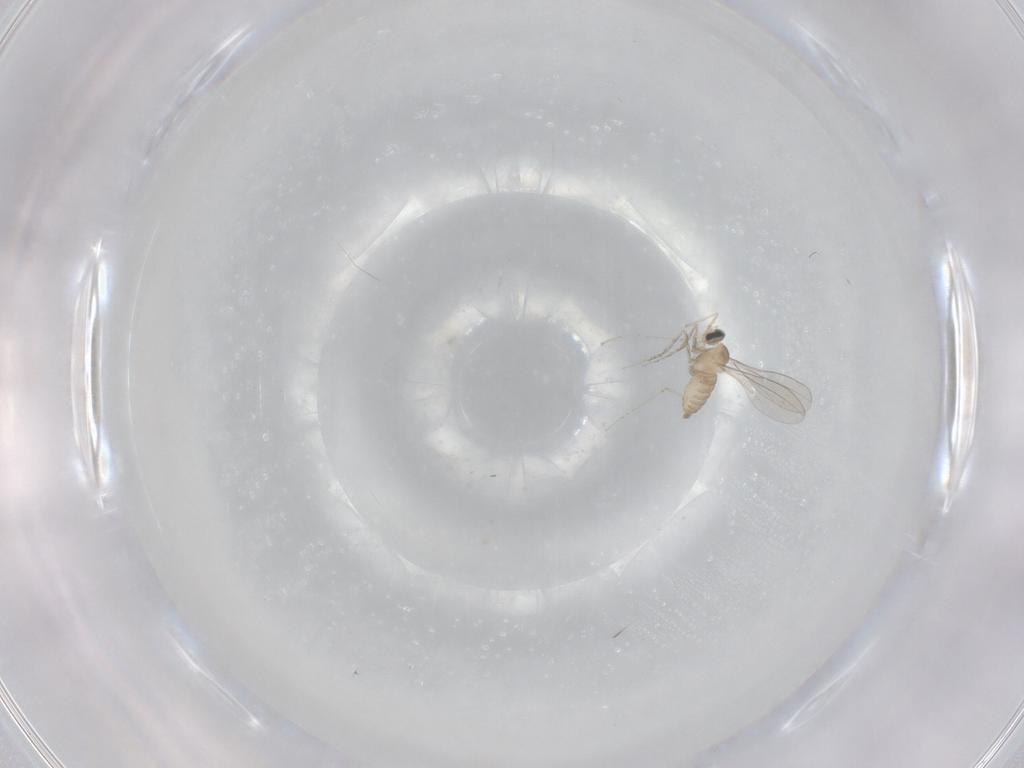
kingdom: Animalia
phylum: Arthropoda
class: Insecta
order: Diptera
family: Cecidomyiidae
